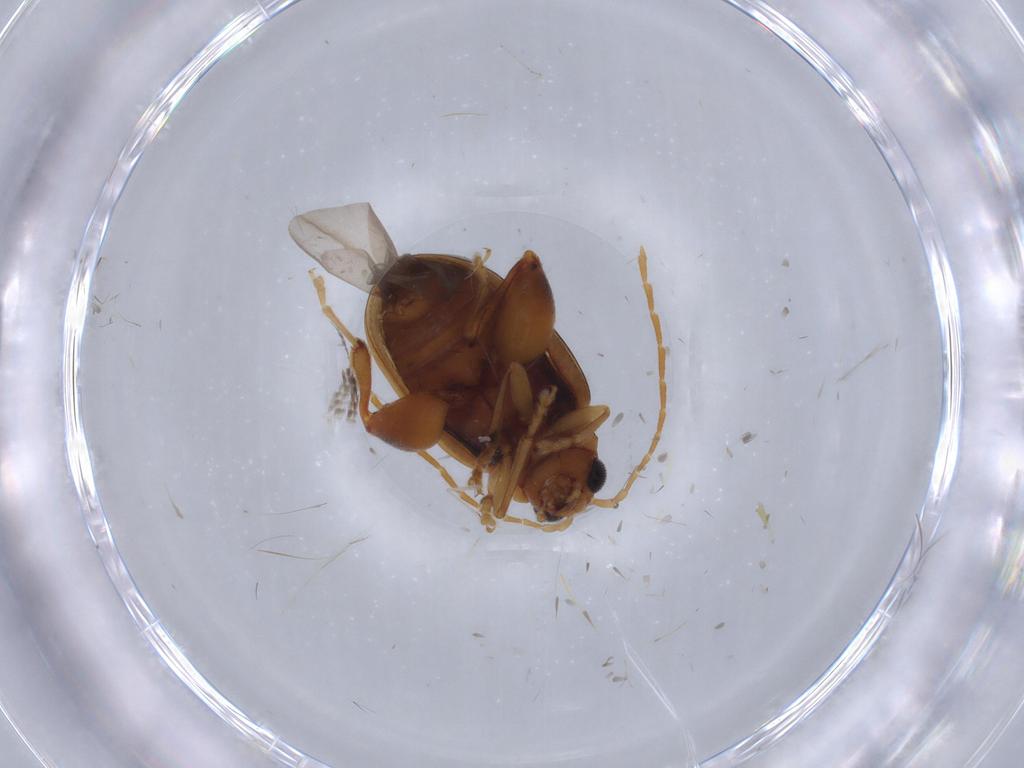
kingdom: Animalia
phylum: Arthropoda
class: Insecta
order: Coleoptera
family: Chrysomelidae
